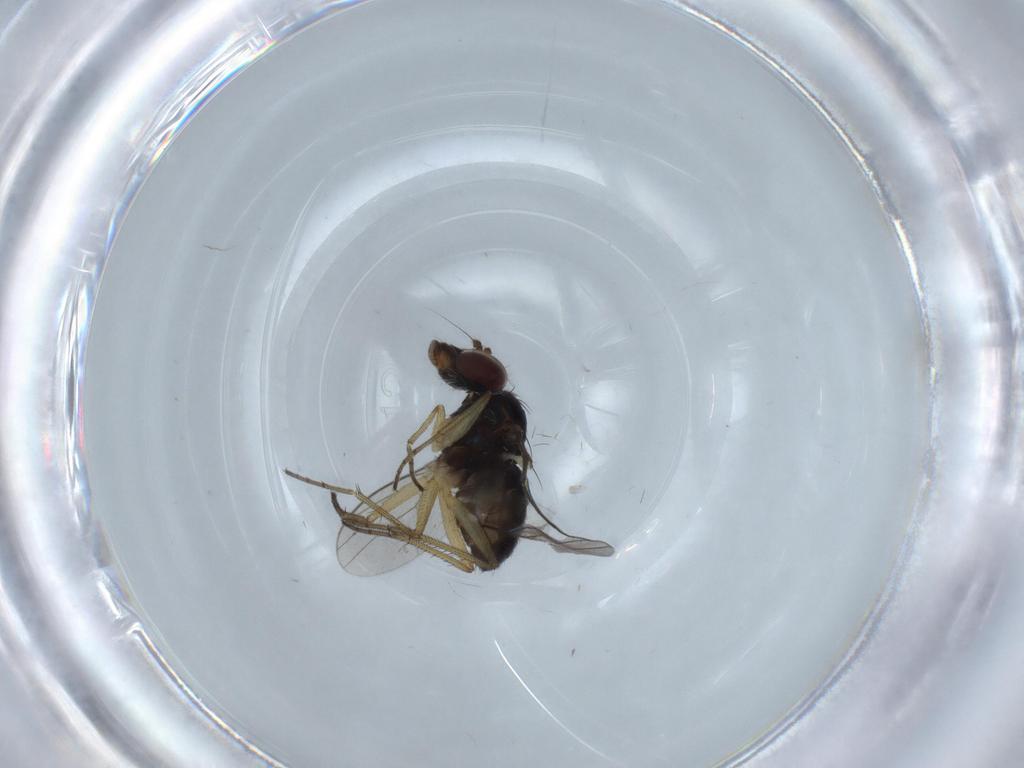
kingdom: Animalia
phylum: Arthropoda
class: Insecta
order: Diptera
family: Dolichopodidae
